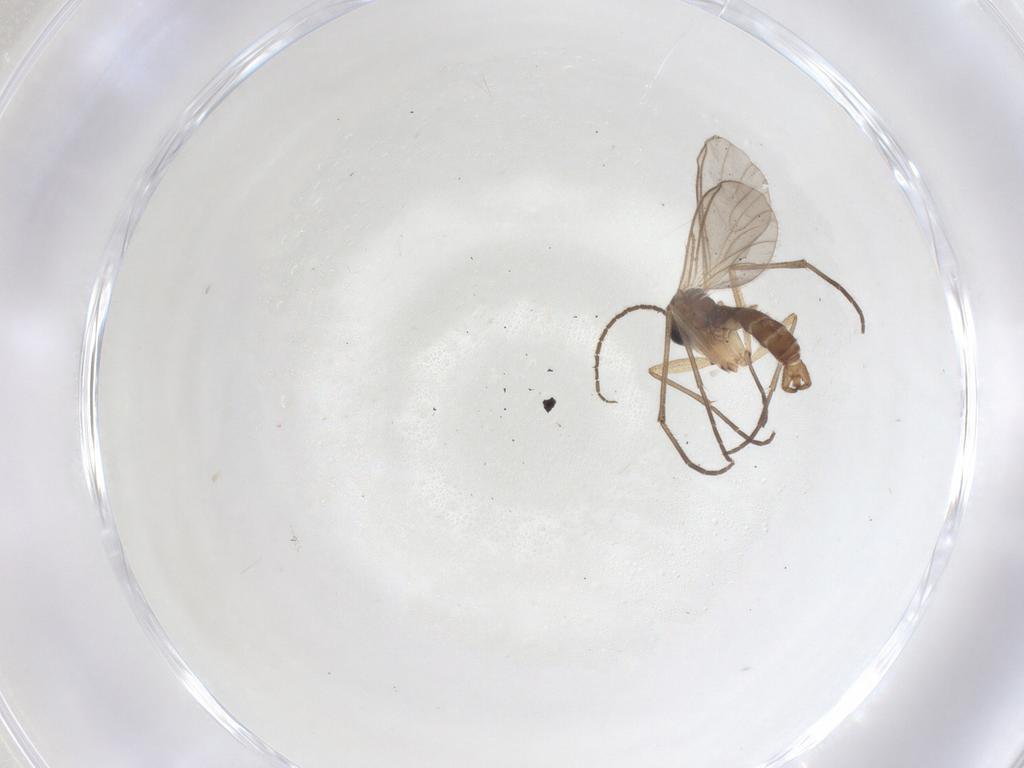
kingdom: Animalia
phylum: Arthropoda
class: Insecta
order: Diptera
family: Sciaridae
